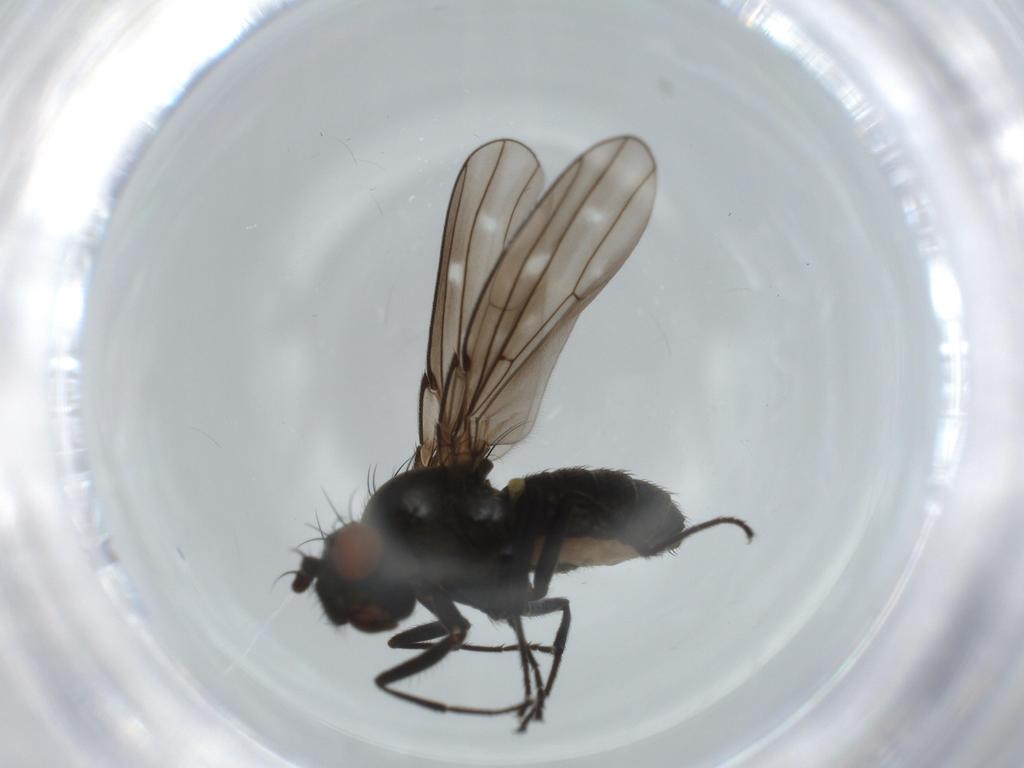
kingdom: Animalia
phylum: Arthropoda
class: Insecta
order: Diptera
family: Ephydridae
